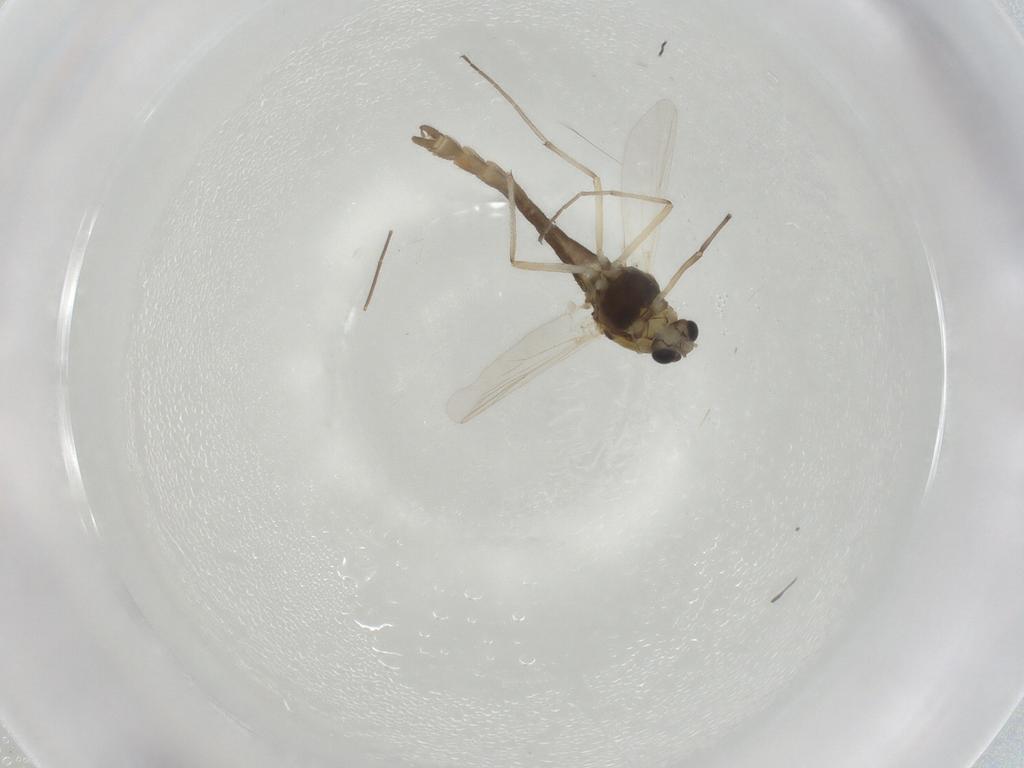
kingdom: Animalia
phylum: Arthropoda
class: Insecta
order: Diptera
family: Chironomidae
